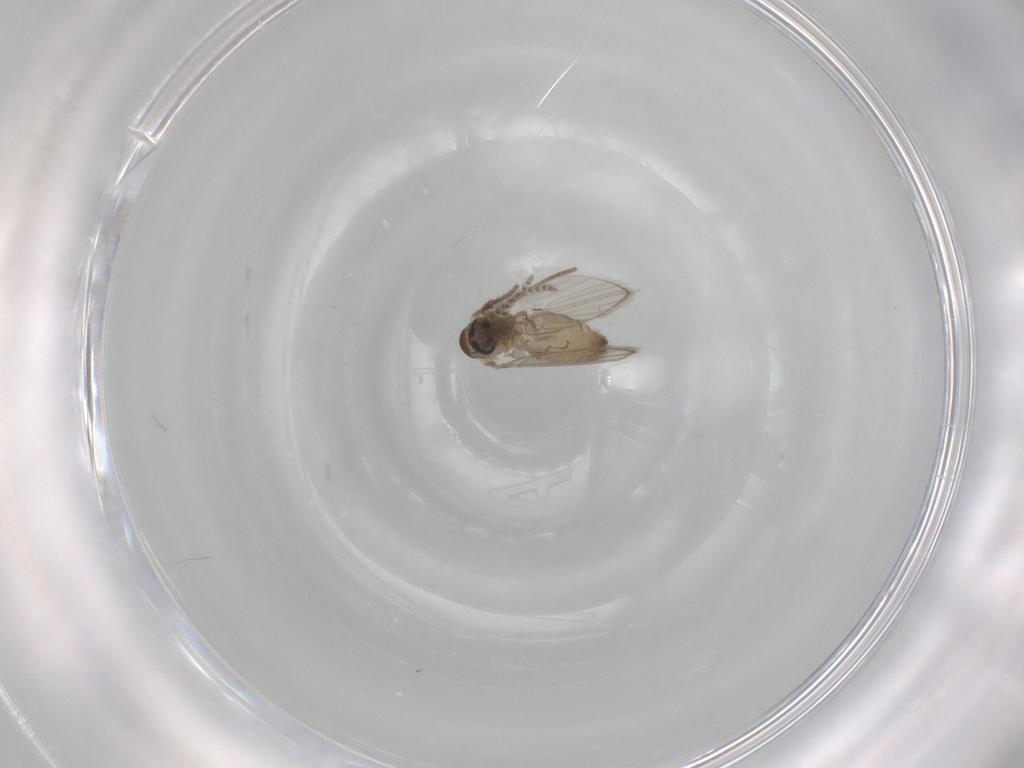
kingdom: Animalia
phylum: Arthropoda
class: Insecta
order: Diptera
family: Psychodidae
